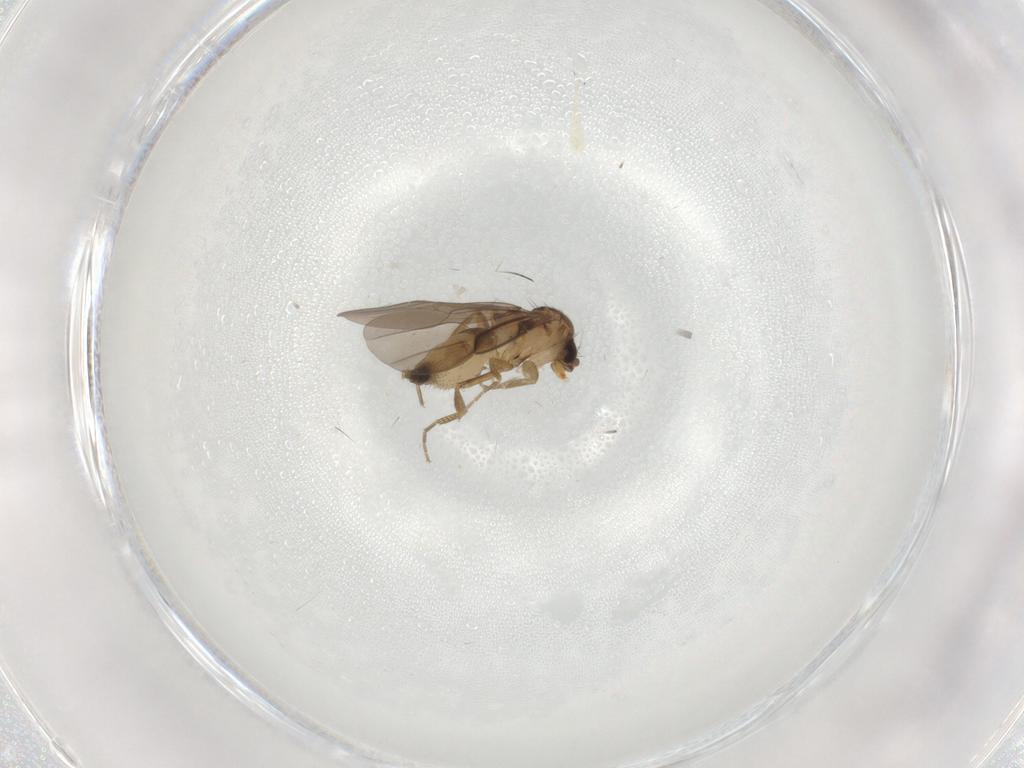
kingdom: Animalia
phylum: Arthropoda
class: Insecta
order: Diptera
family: Phoridae
